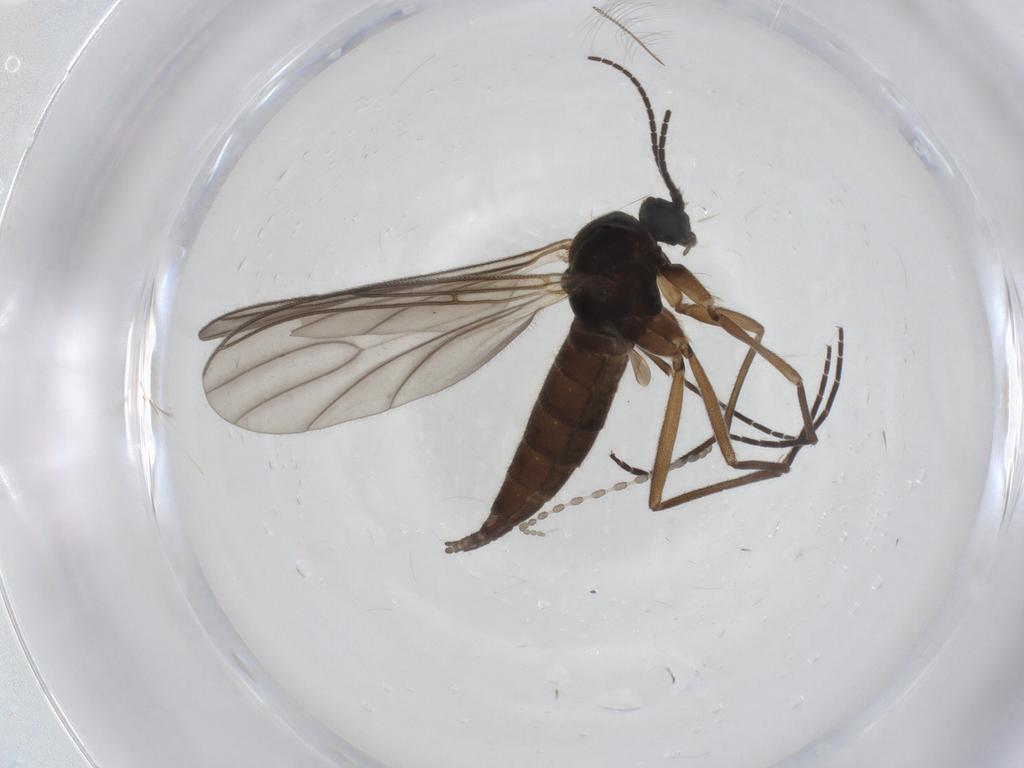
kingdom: Animalia
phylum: Arthropoda
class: Insecta
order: Diptera
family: Sciaridae
